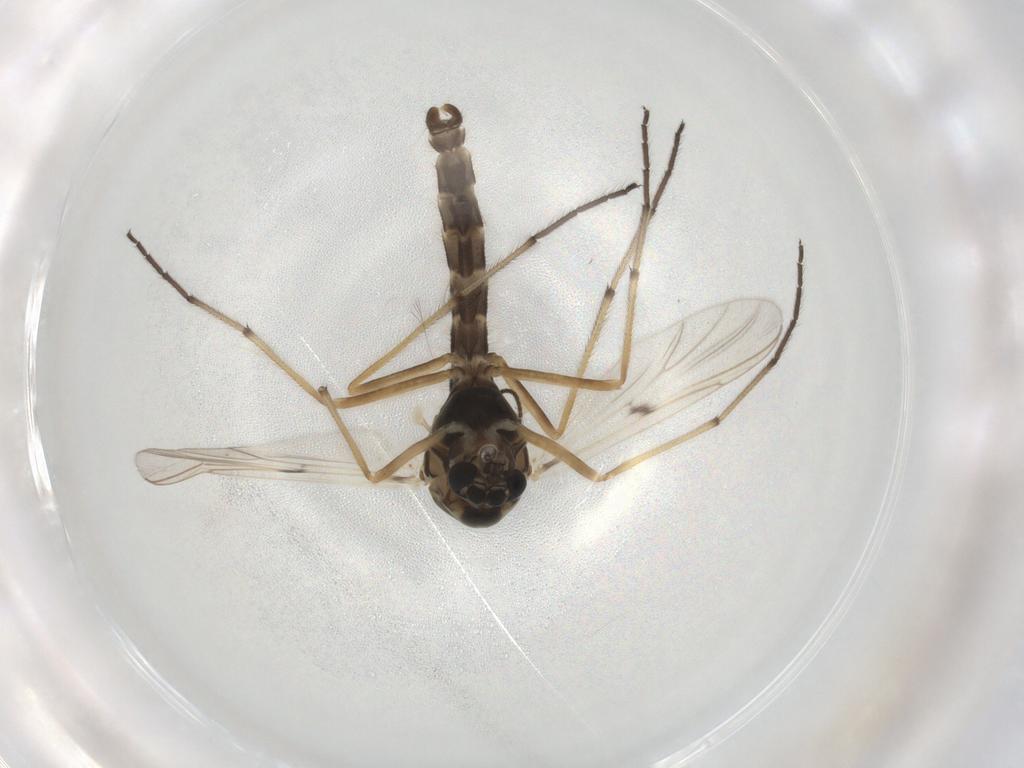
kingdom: Animalia
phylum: Arthropoda
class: Insecta
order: Diptera
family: Chironomidae
